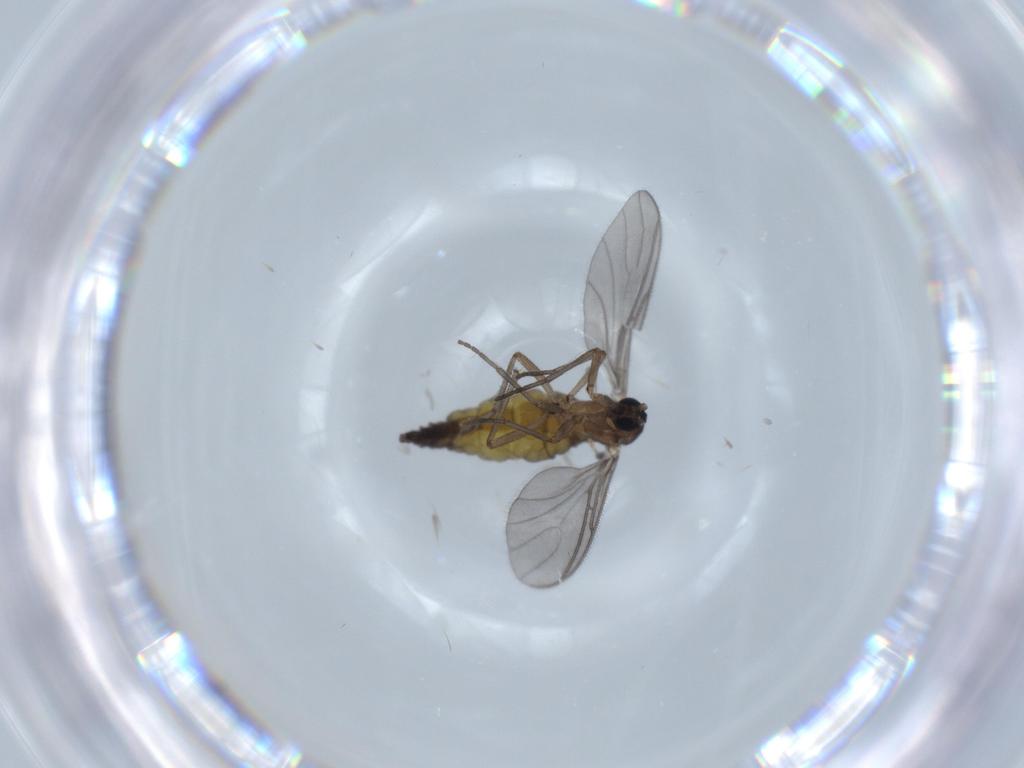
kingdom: Animalia
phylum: Arthropoda
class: Insecta
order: Diptera
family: Sciaridae
